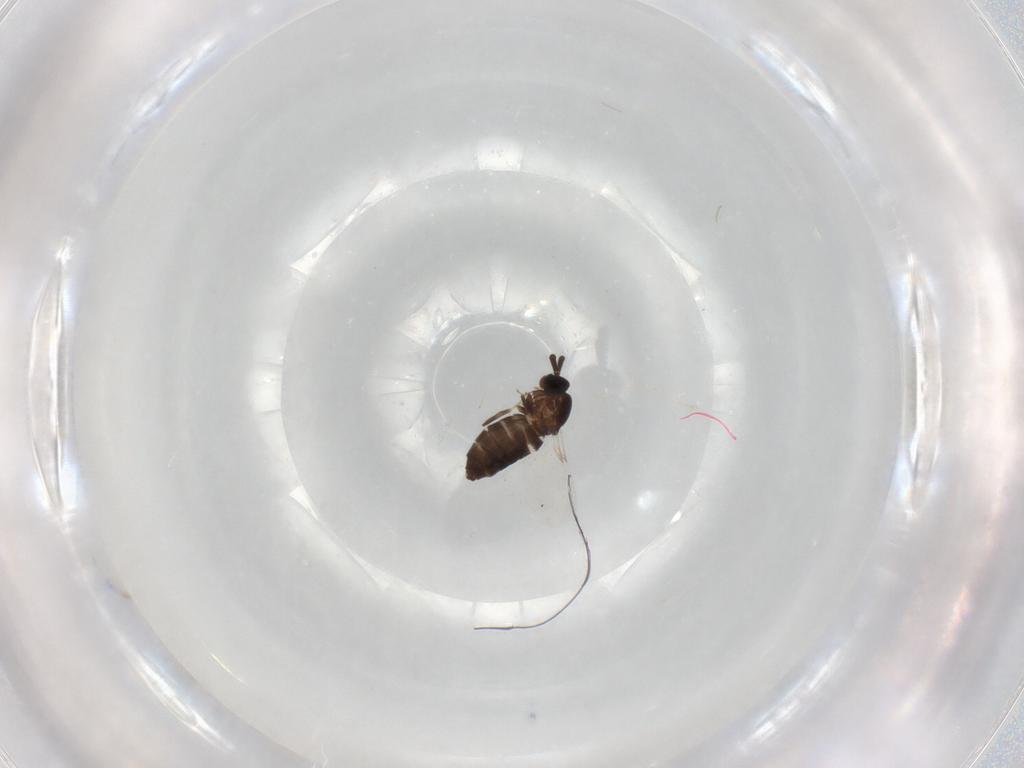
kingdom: Animalia
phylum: Arthropoda
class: Insecta
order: Diptera
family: Scatopsidae
